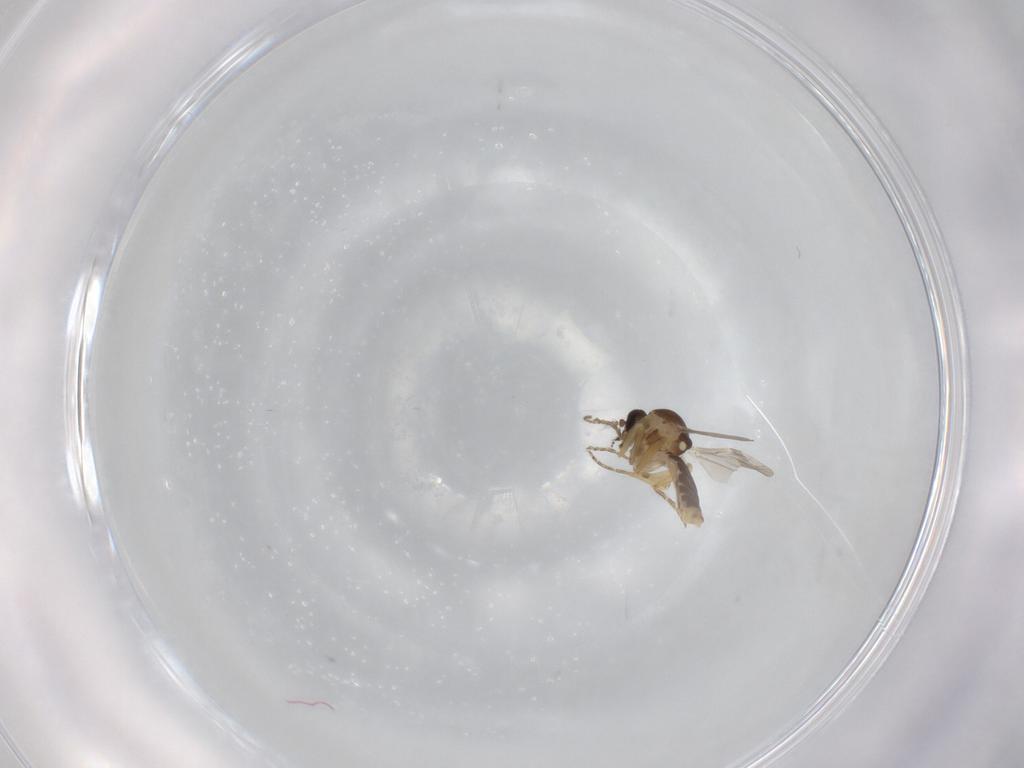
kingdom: Animalia
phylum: Arthropoda
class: Insecta
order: Diptera
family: Ceratopogonidae
